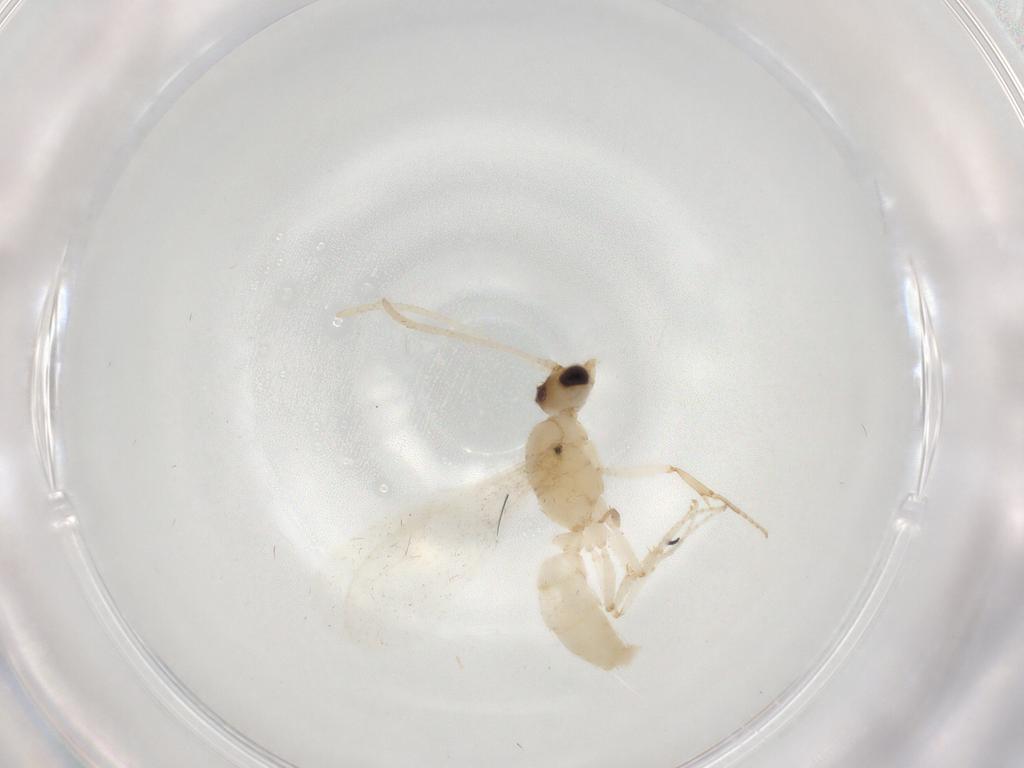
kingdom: Animalia
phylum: Arthropoda
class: Insecta
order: Hymenoptera
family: Formicidae
